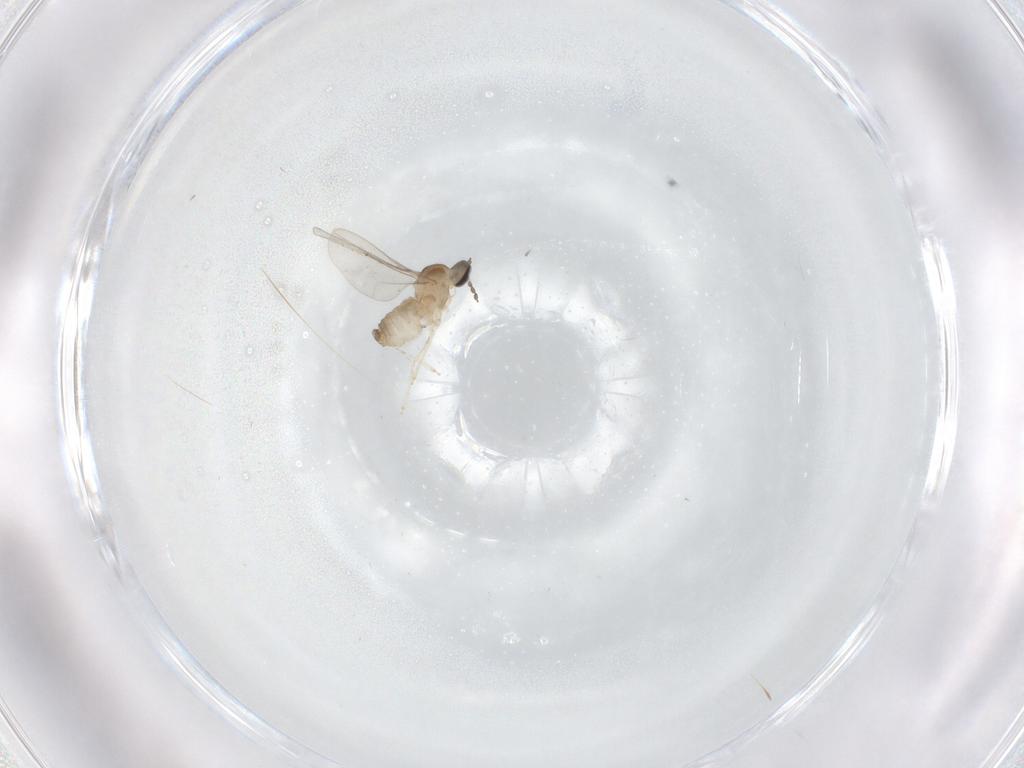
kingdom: Animalia
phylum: Arthropoda
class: Insecta
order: Diptera
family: Cecidomyiidae
